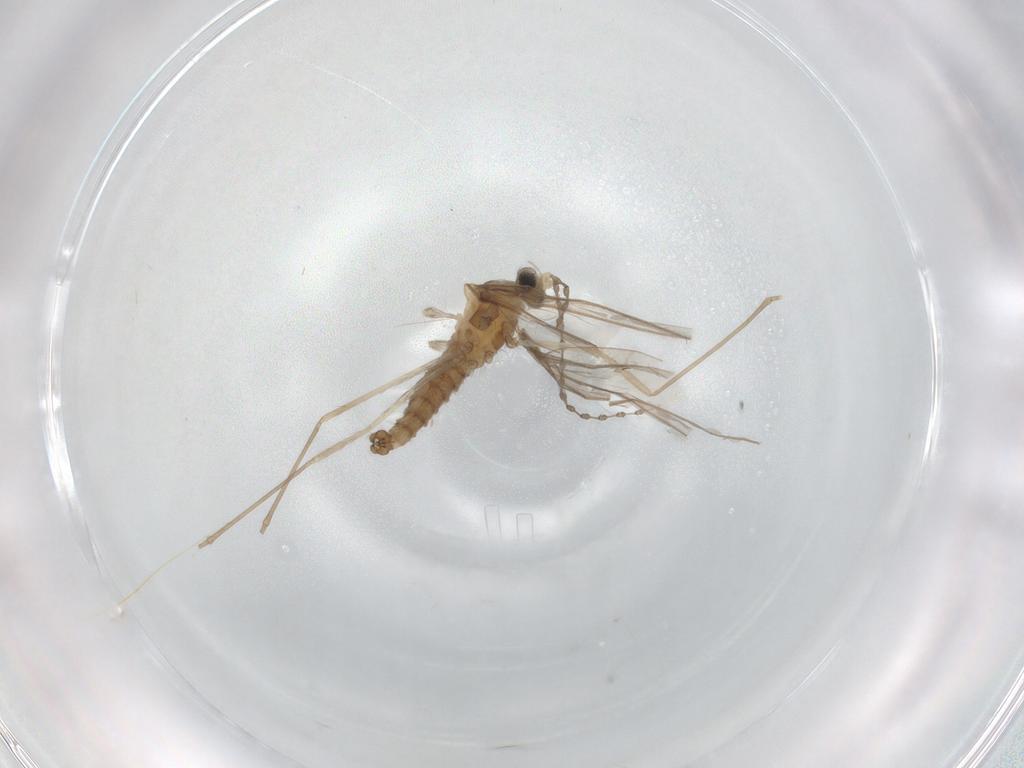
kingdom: Animalia
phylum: Arthropoda
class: Insecta
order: Diptera
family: Cecidomyiidae
